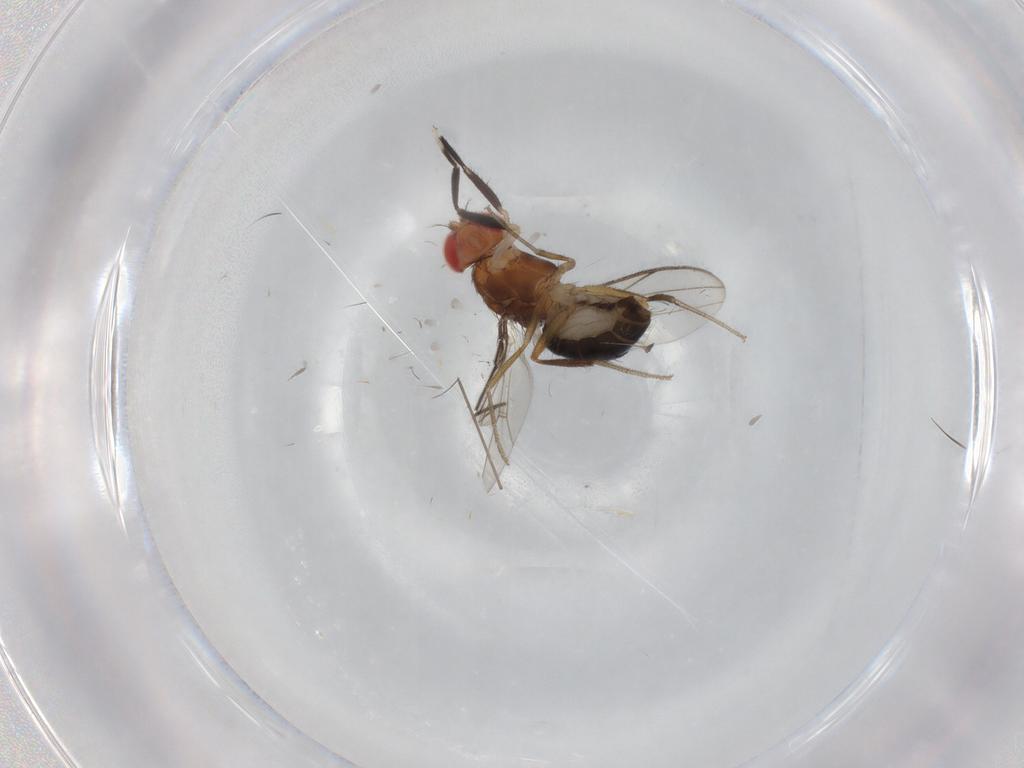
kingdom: Animalia
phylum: Arthropoda
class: Insecta
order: Diptera
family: Drosophilidae
